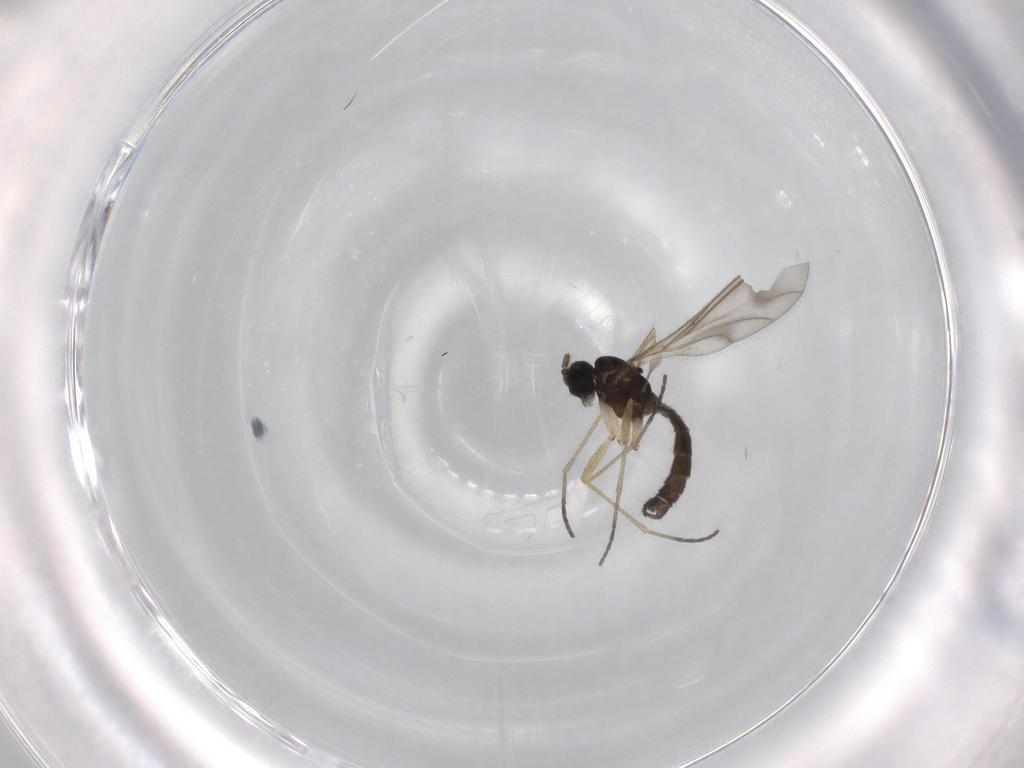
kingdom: Animalia
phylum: Arthropoda
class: Insecta
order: Diptera
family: Sciaridae
